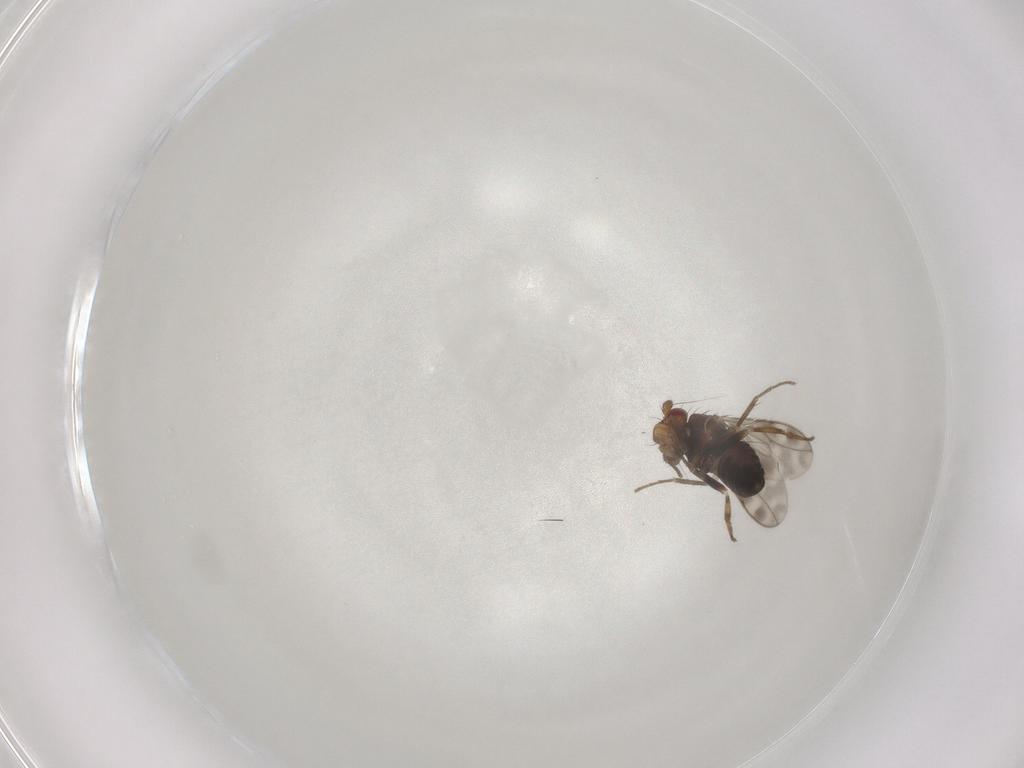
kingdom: Animalia
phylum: Arthropoda
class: Insecta
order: Diptera
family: Sphaeroceridae
